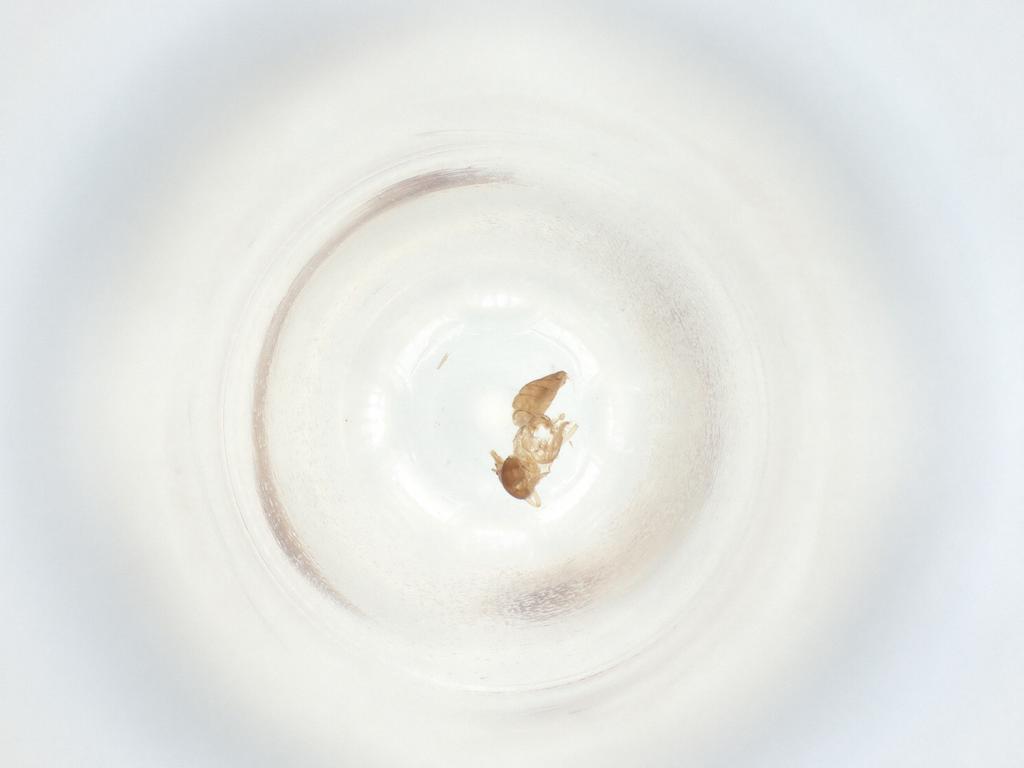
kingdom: Animalia
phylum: Arthropoda
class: Insecta
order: Diptera
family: Ceratopogonidae
